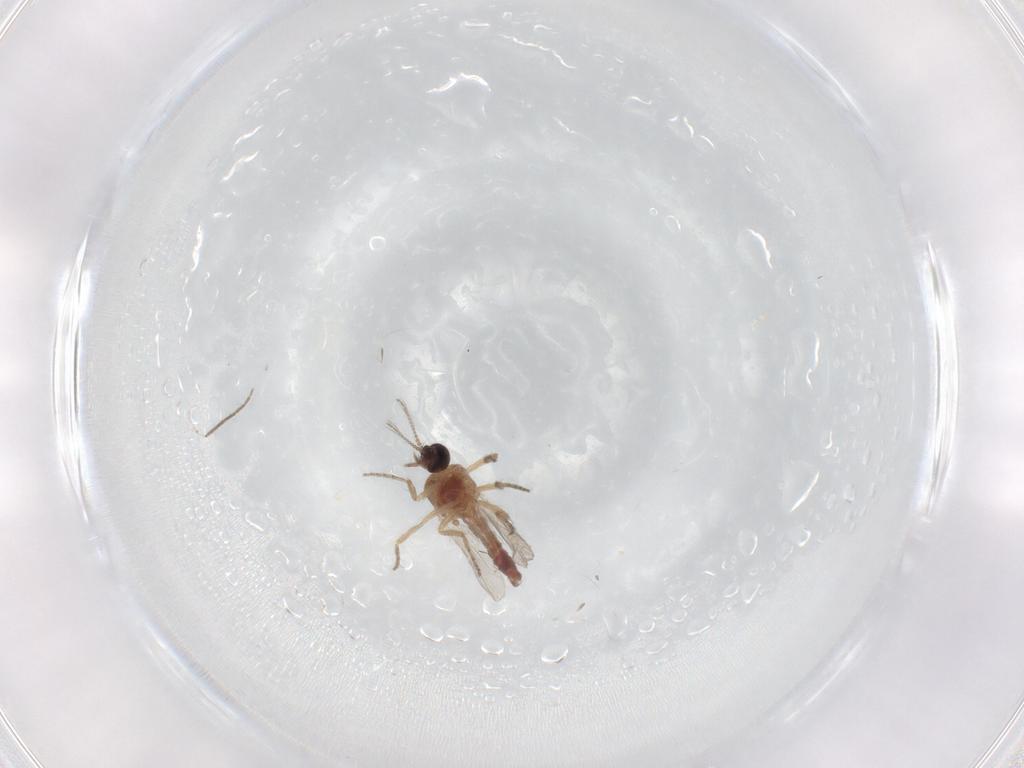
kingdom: Animalia
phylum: Arthropoda
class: Insecta
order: Diptera
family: Ceratopogonidae
